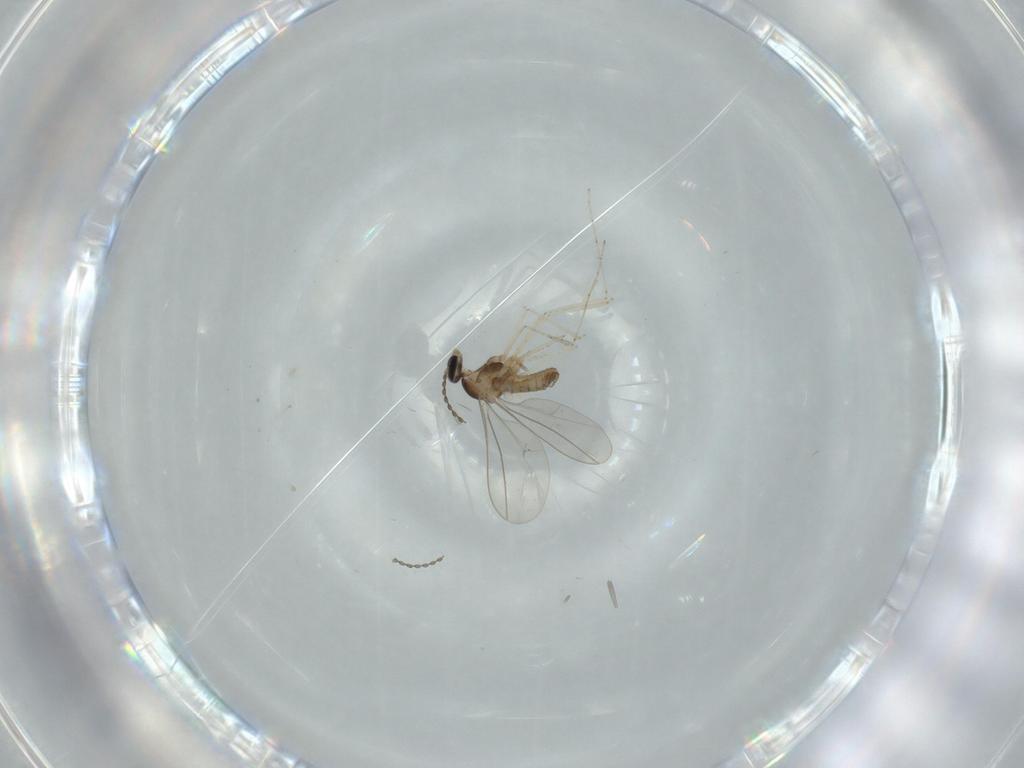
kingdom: Animalia
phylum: Arthropoda
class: Insecta
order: Diptera
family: Cecidomyiidae
